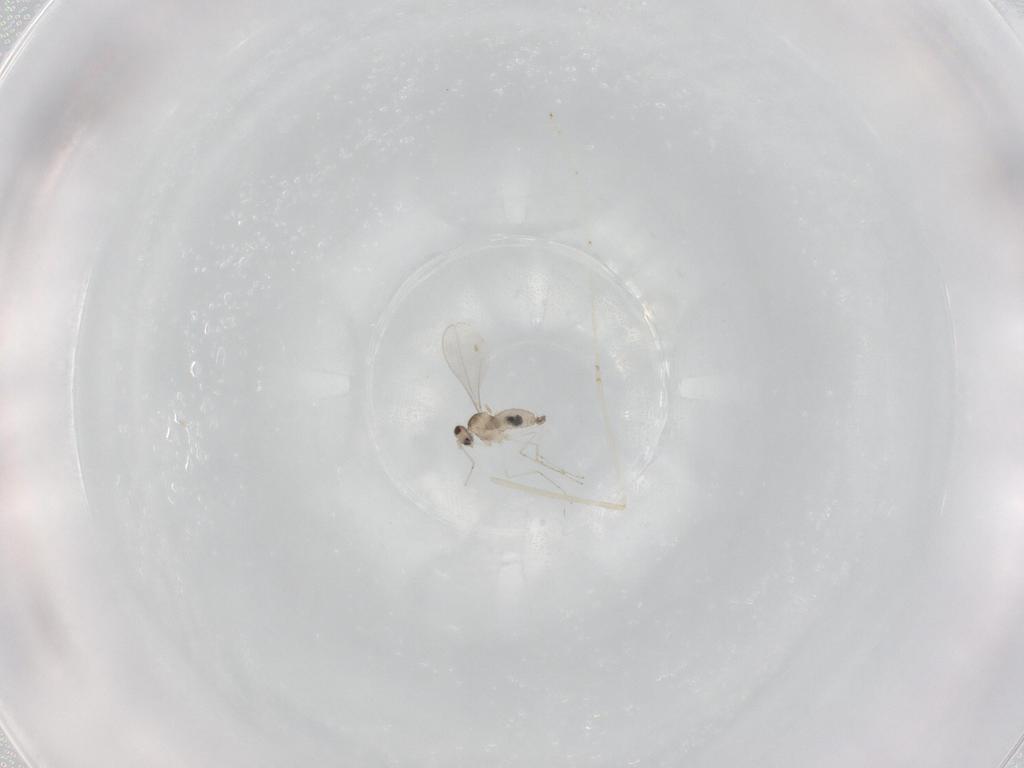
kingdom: Animalia
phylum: Arthropoda
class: Insecta
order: Diptera
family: Cecidomyiidae
